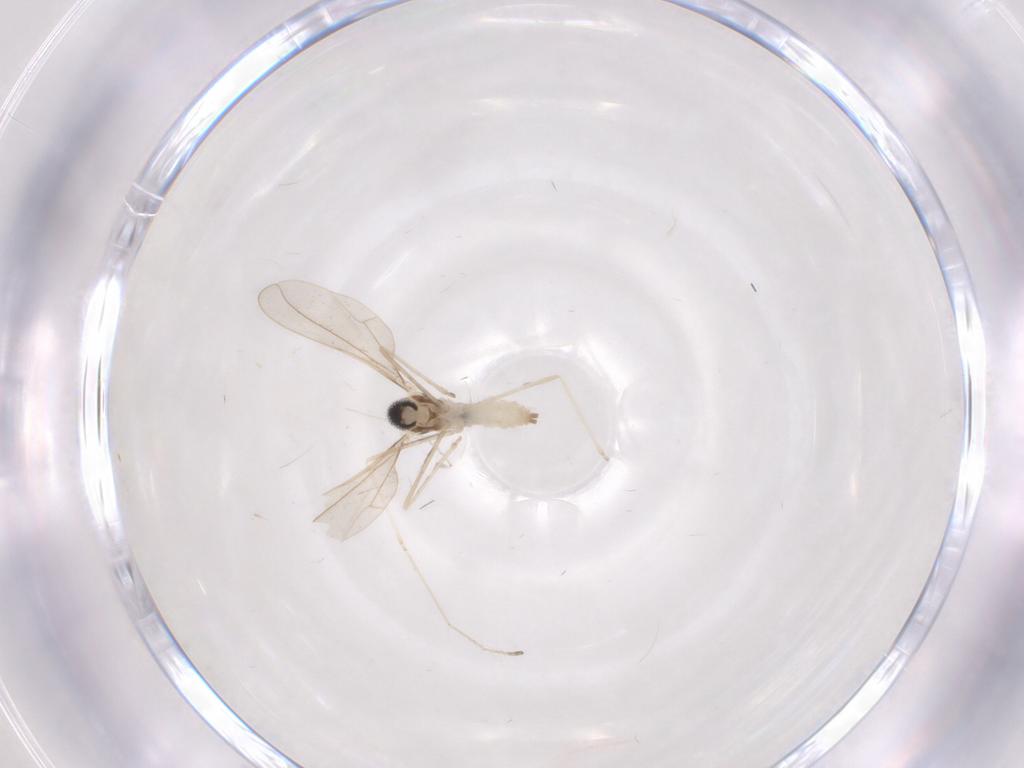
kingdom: Animalia
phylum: Arthropoda
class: Insecta
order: Diptera
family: Cecidomyiidae
